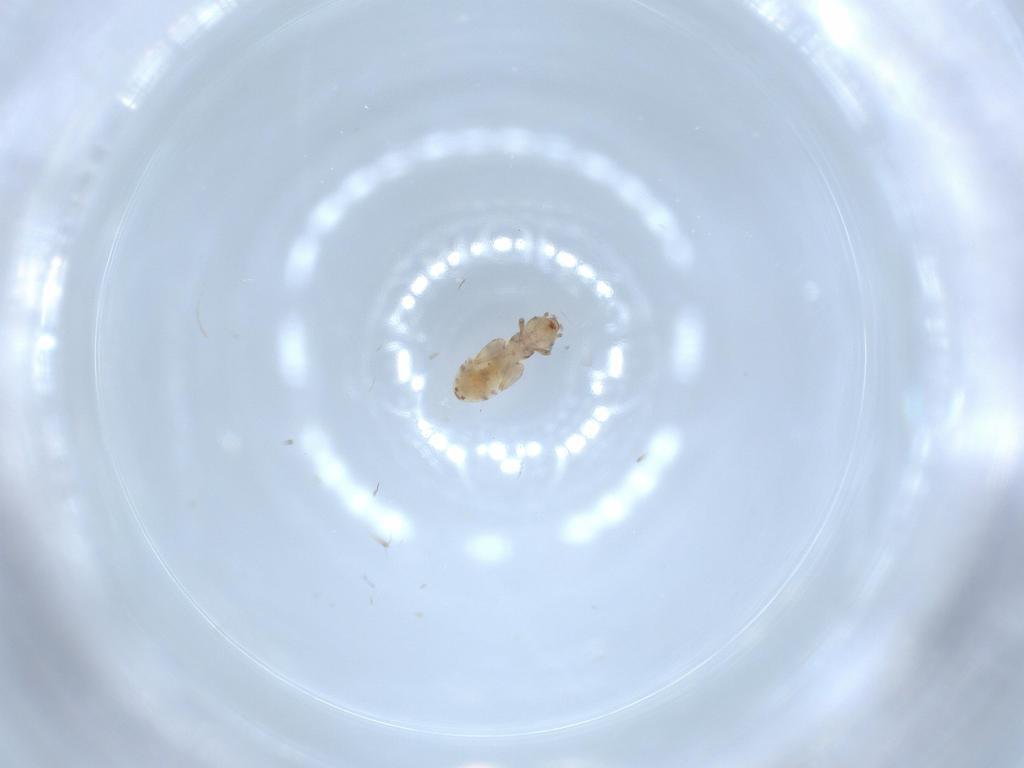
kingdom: Animalia
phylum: Arthropoda
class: Insecta
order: Psocodea
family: Liposcelididae
